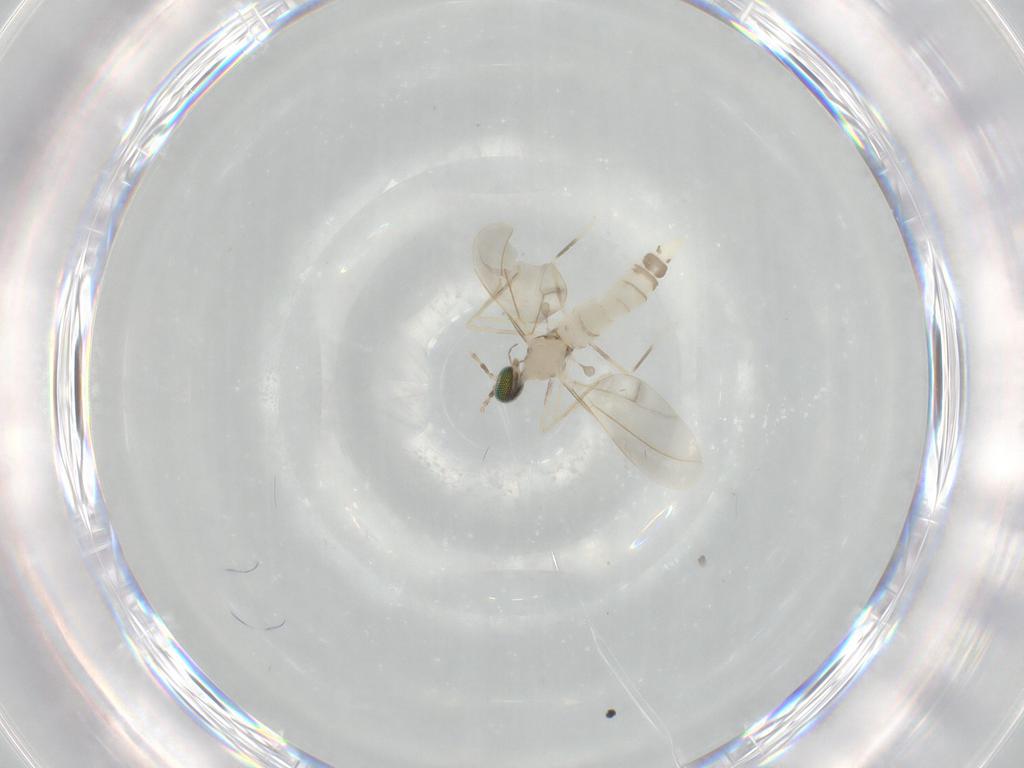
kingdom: Animalia
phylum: Arthropoda
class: Insecta
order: Diptera
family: Cecidomyiidae
